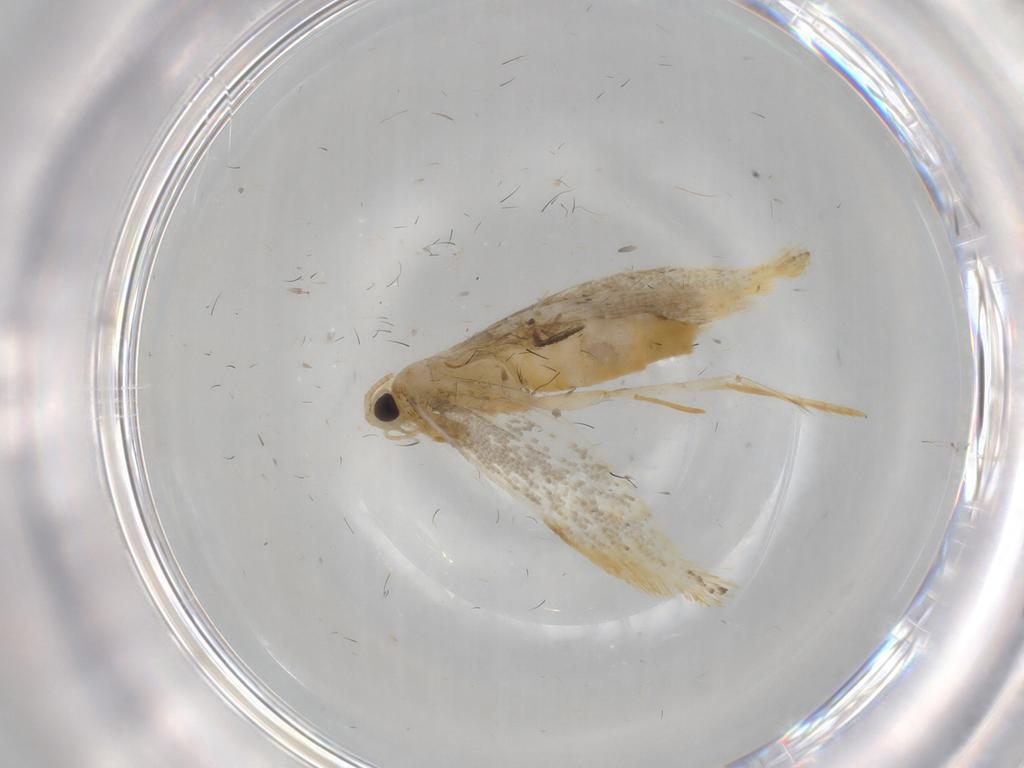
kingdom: Animalia
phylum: Arthropoda
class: Insecta
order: Lepidoptera
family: Tineidae
